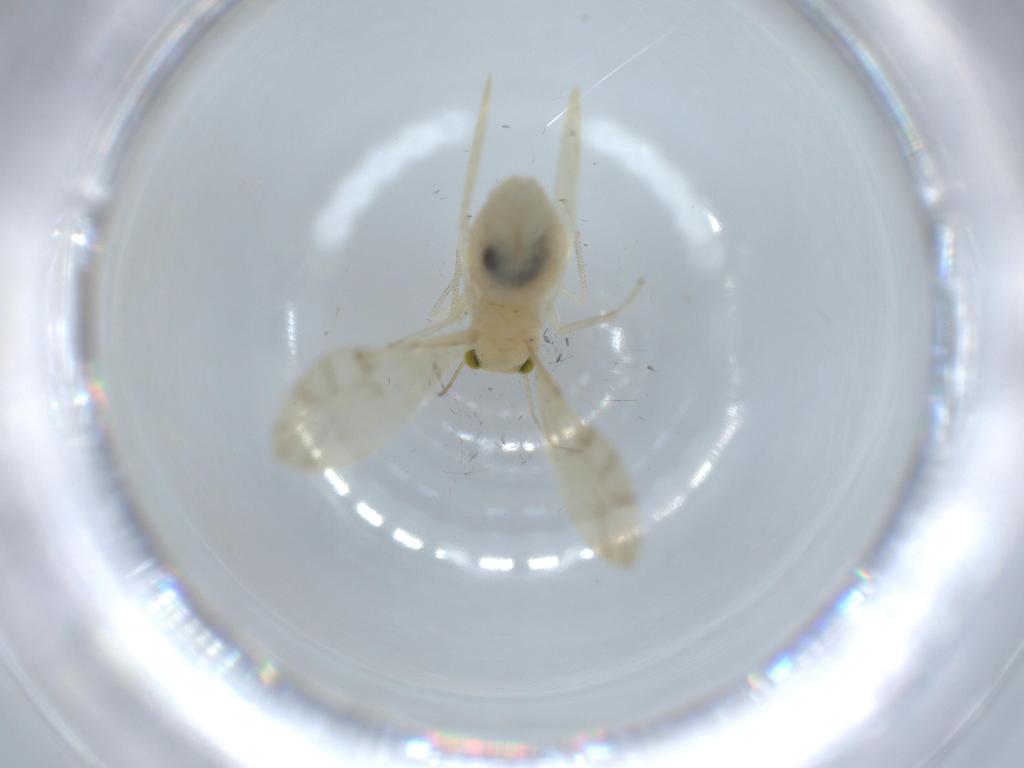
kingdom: Animalia
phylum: Arthropoda
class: Insecta
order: Psocodea
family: Caeciliusidae
